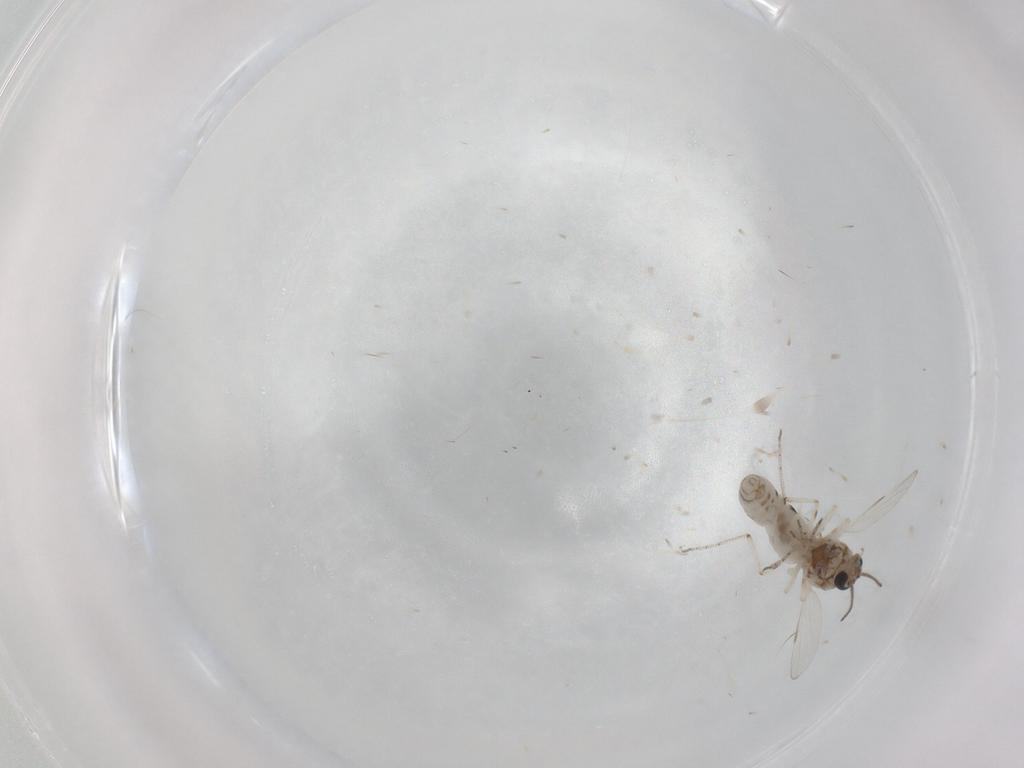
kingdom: Animalia
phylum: Arthropoda
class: Insecta
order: Diptera
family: Ceratopogonidae
